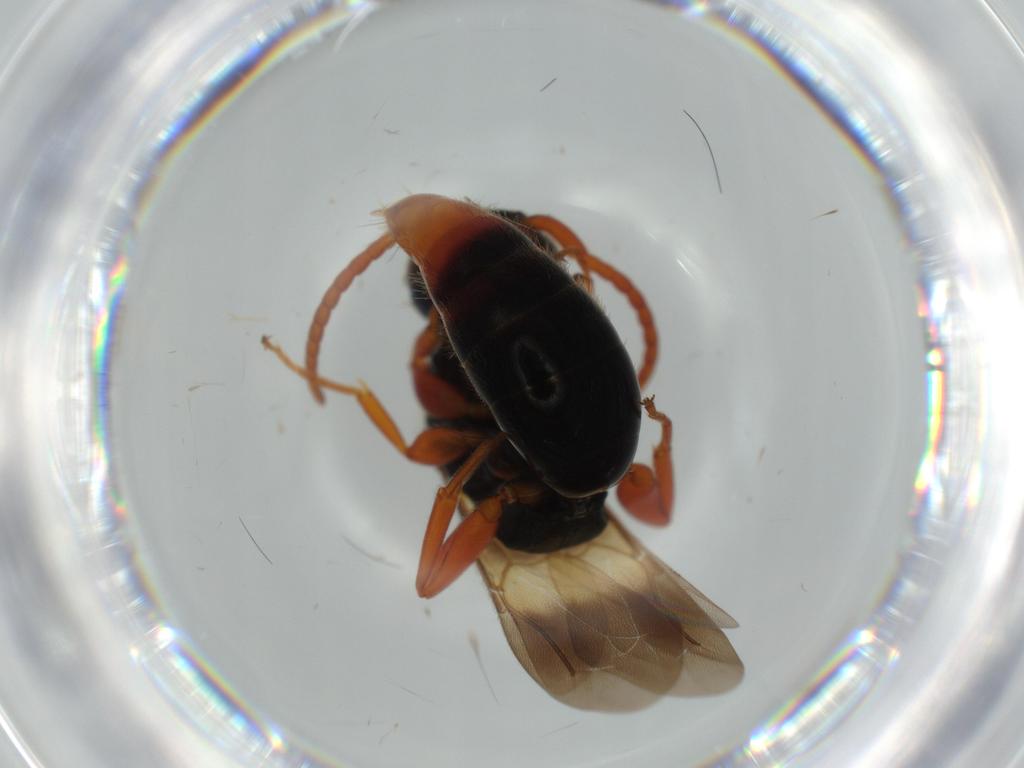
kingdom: Animalia
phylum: Arthropoda
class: Insecta
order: Hymenoptera
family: Bethylidae
